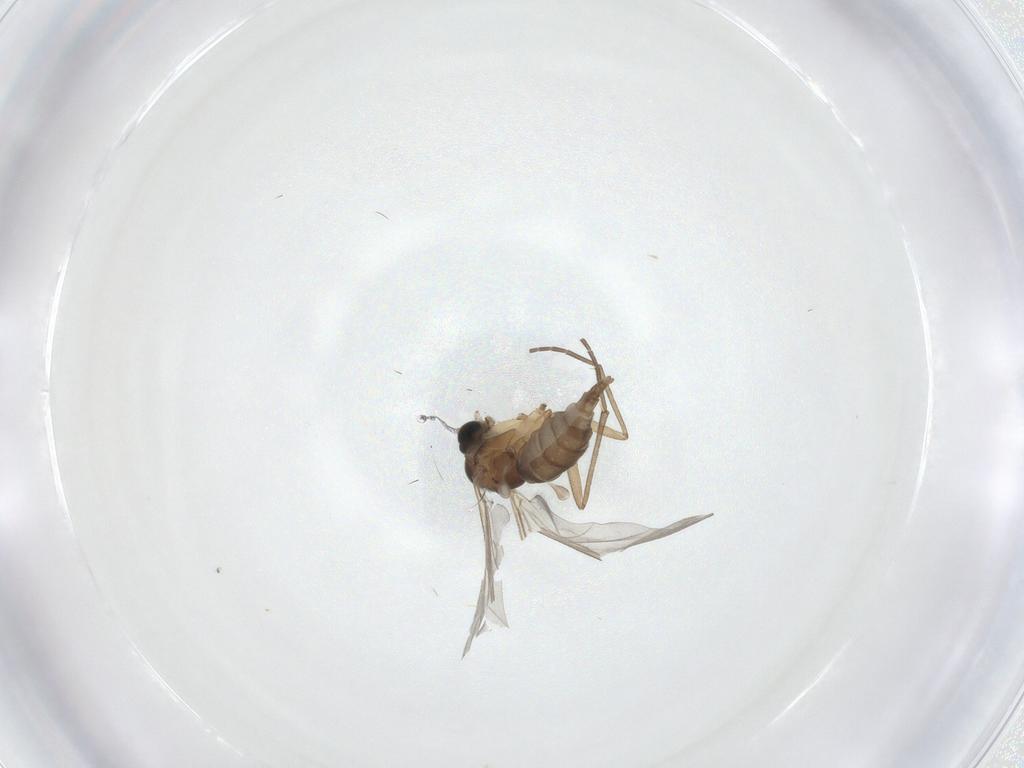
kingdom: Animalia
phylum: Arthropoda
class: Insecta
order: Diptera
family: Sciaridae
